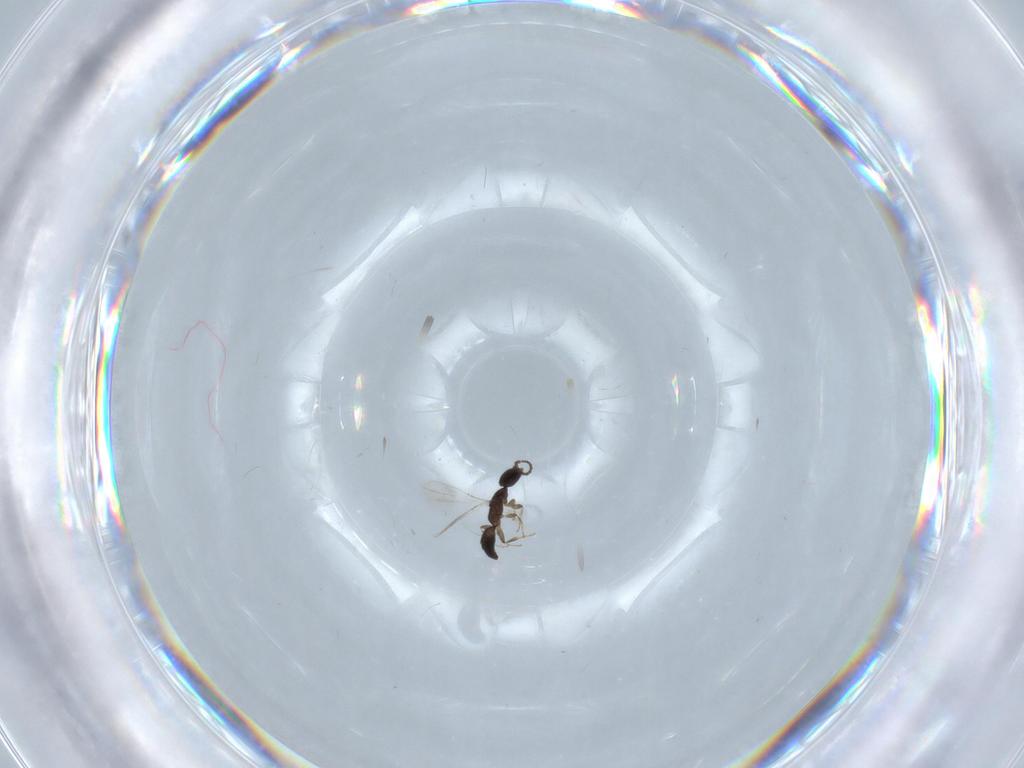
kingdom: Animalia
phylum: Arthropoda
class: Insecta
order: Hymenoptera
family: Bethylidae
